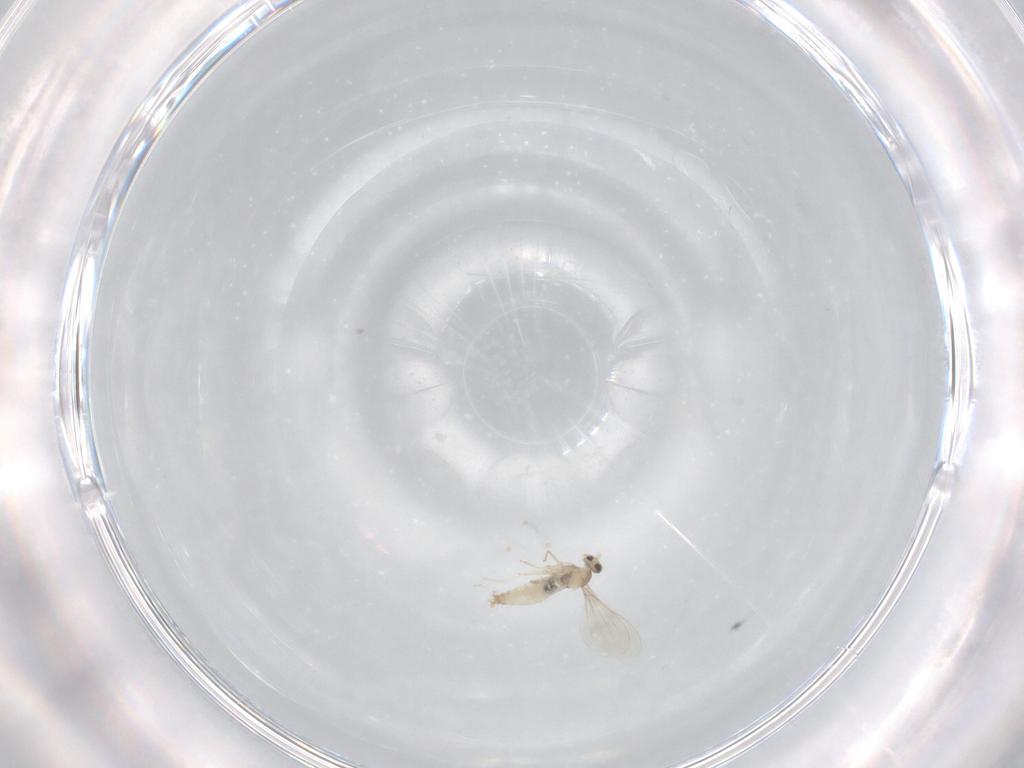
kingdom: Animalia
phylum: Arthropoda
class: Insecta
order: Diptera
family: Cecidomyiidae
